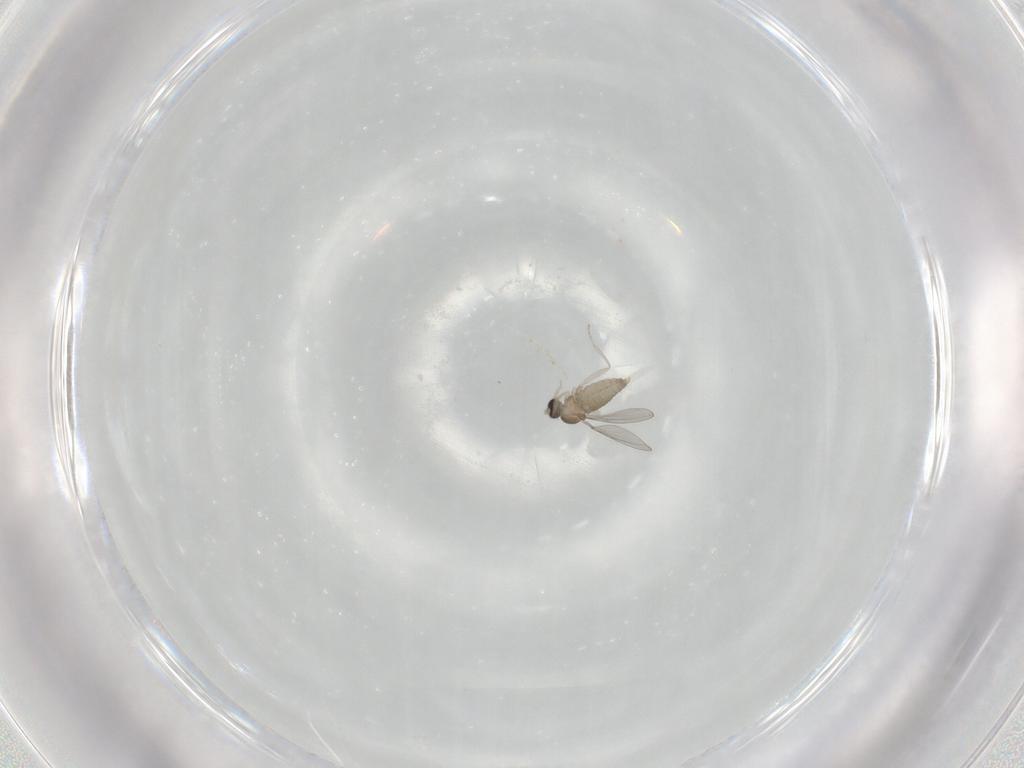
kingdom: Animalia
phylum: Arthropoda
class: Insecta
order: Diptera
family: Cecidomyiidae
